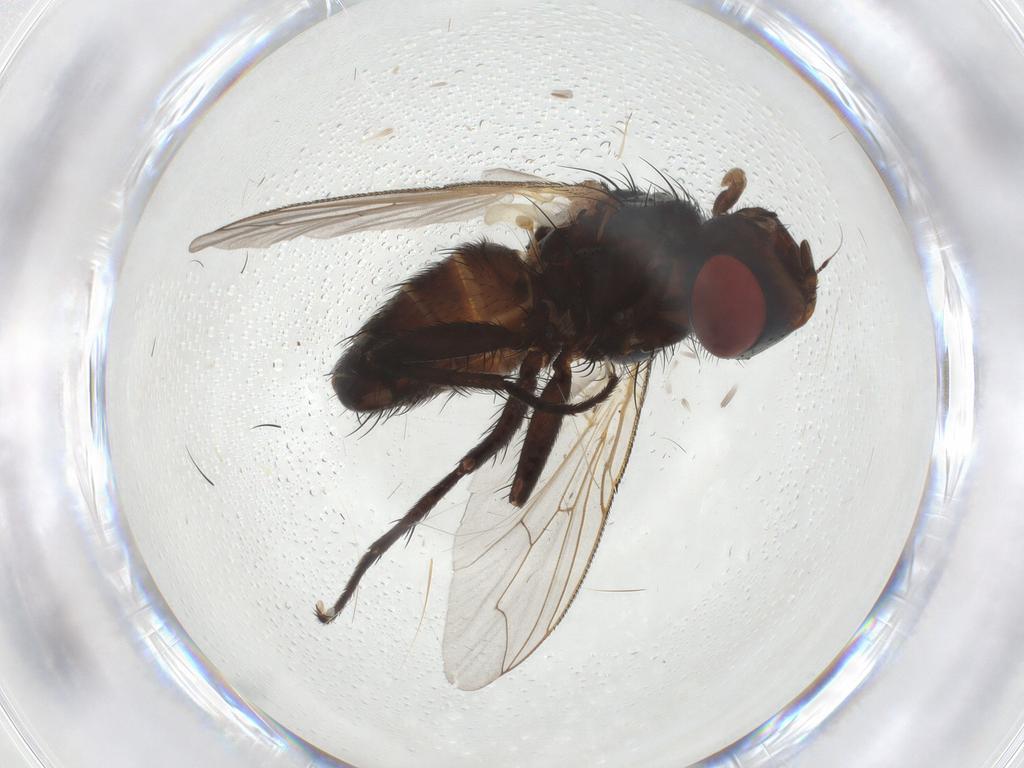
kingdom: Animalia
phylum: Arthropoda
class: Insecta
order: Diptera
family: Sarcophagidae
